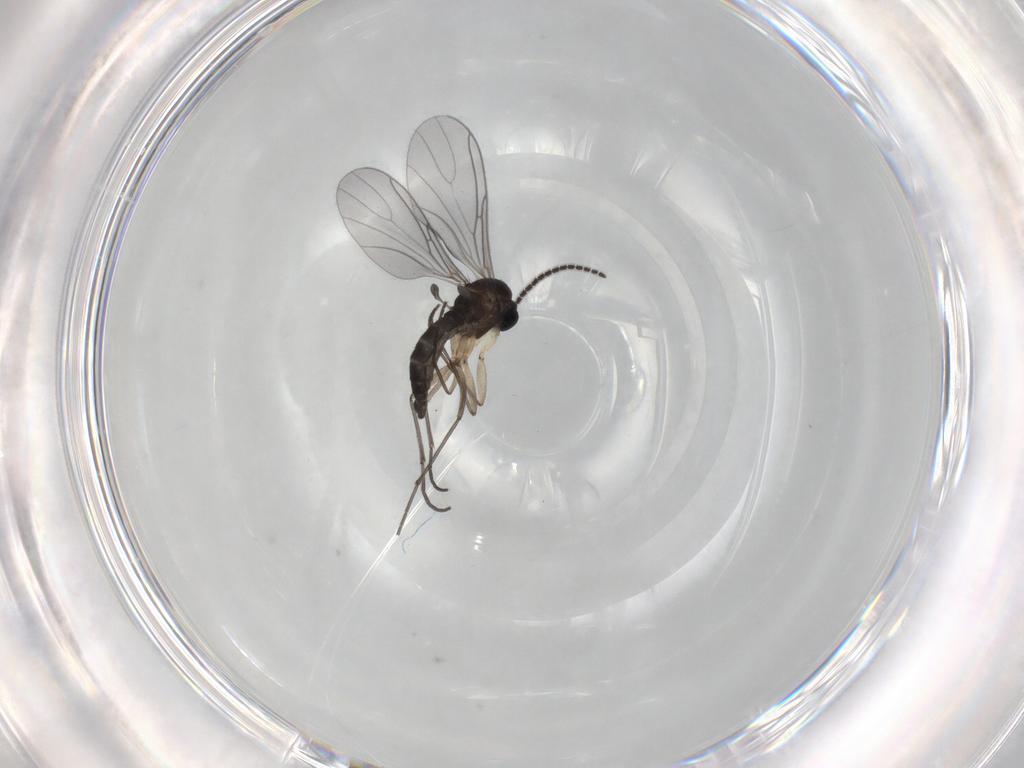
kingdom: Animalia
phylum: Arthropoda
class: Insecta
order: Diptera
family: Sciaridae
